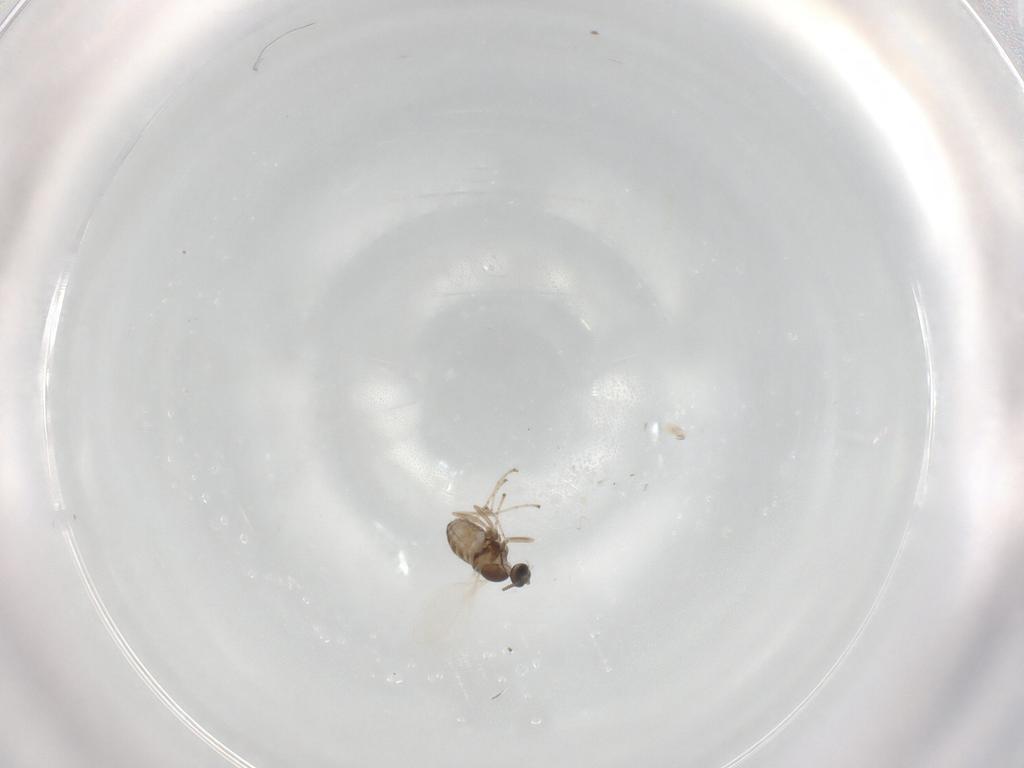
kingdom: Animalia
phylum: Arthropoda
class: Insecta
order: Diptera
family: Cecidomyiidae
